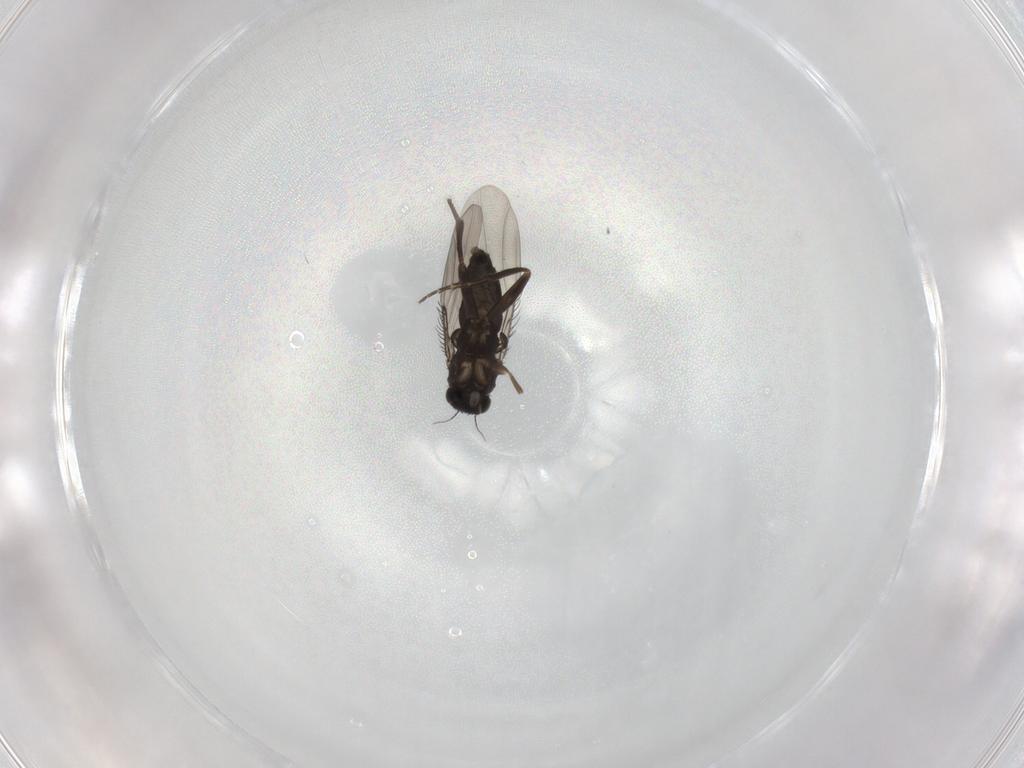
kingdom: Animalia
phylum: Arthropoda
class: Insecta
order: Diptera
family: Phoridae
